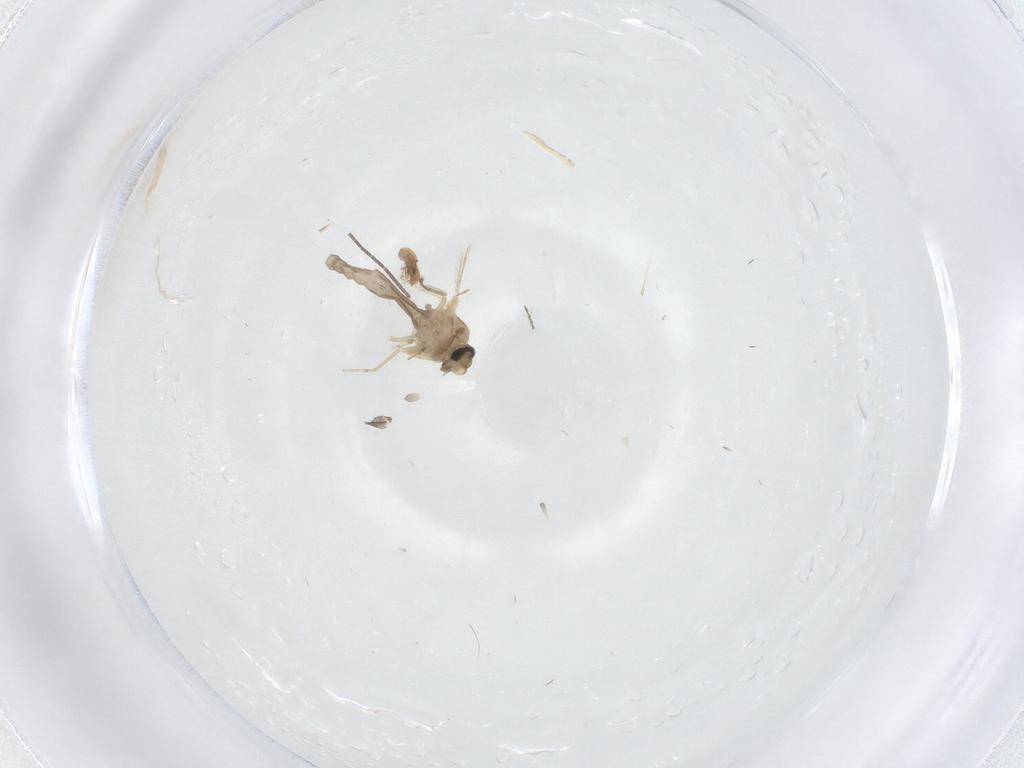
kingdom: Animalia
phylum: Arthropoda
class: Insecta
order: Diptera
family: Ceratopogonidae
